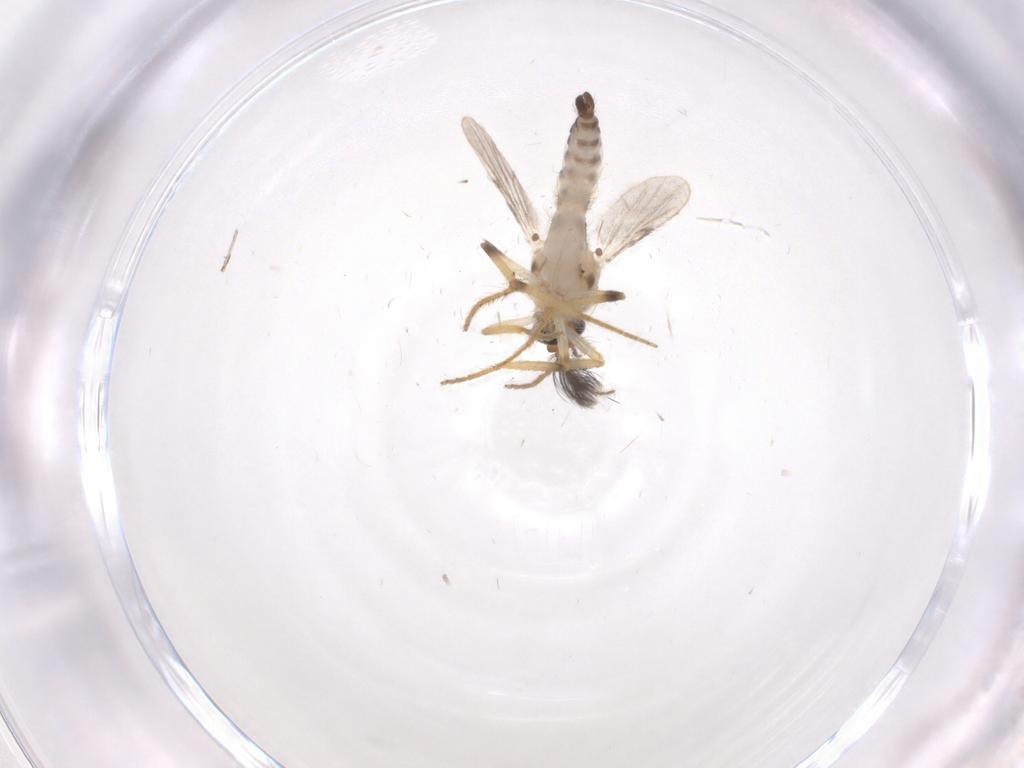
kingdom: Animalia
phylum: Arthropoda
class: Insecta
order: Diptera
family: Ceratopogonidae
